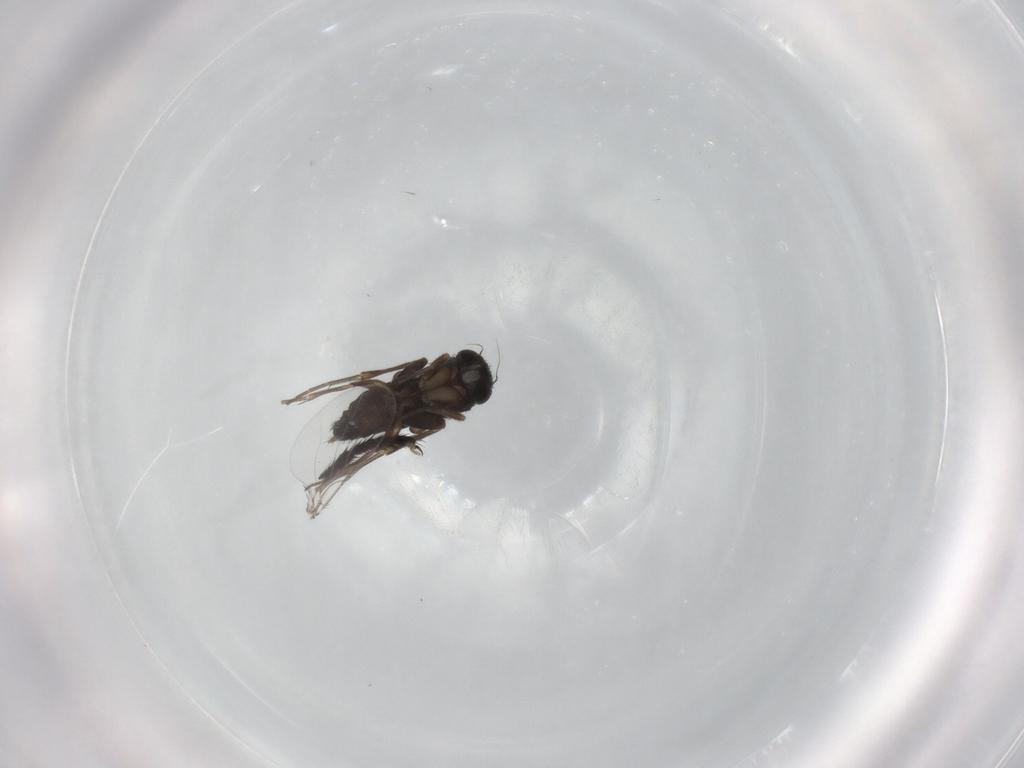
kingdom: Animalia
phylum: Arthropoda
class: Insecta
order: Diptera
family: Anthomyiidae
